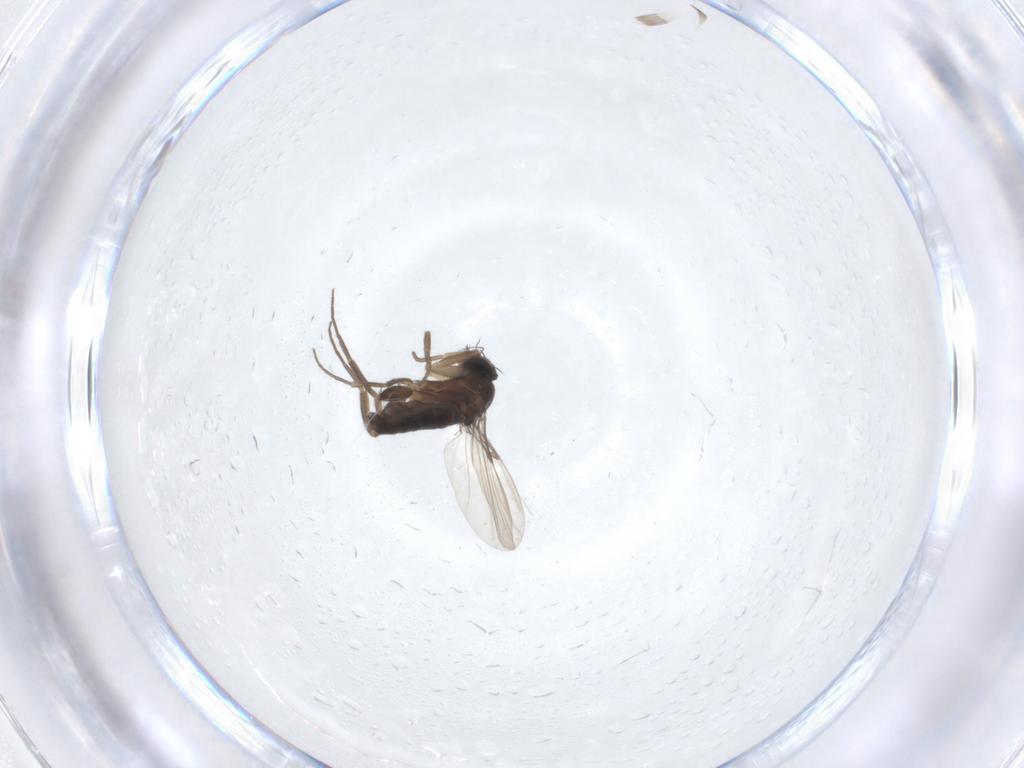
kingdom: Animalia
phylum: Arthropoda
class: Insecta
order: Diptera
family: Phoridae
